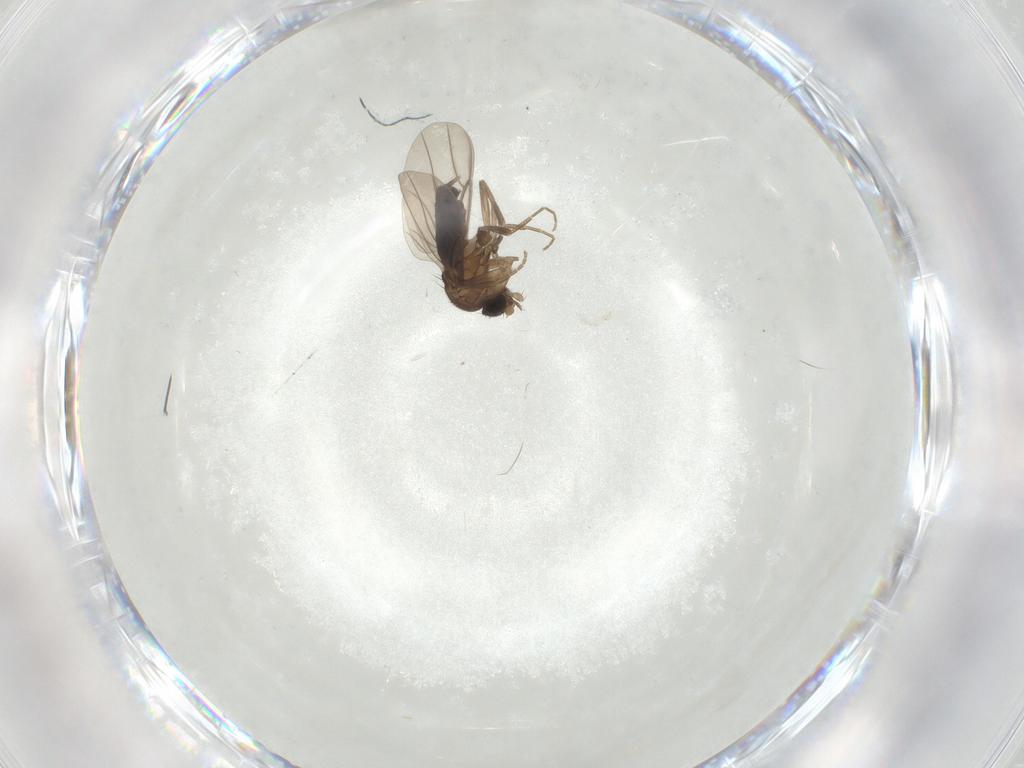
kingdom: Animalia
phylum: Arthropoda
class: Insecta
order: Diptera
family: Phoridae
